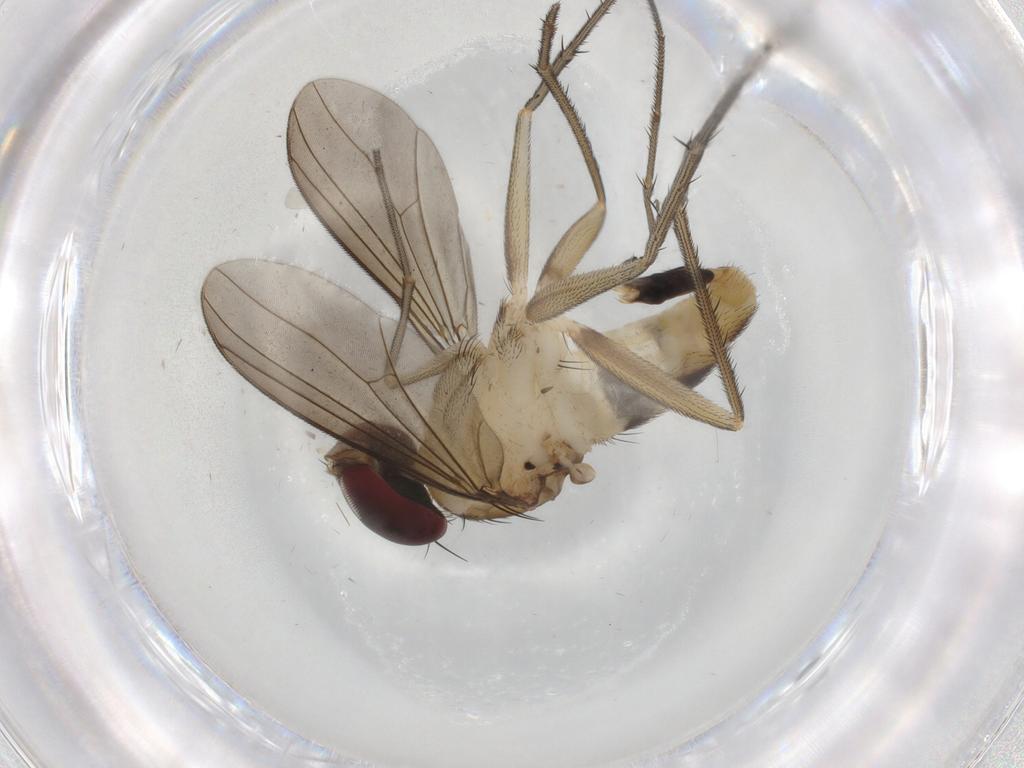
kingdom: Animalia
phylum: Arthropoda
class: Insecta
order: Diptera
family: Dolichopodidae
